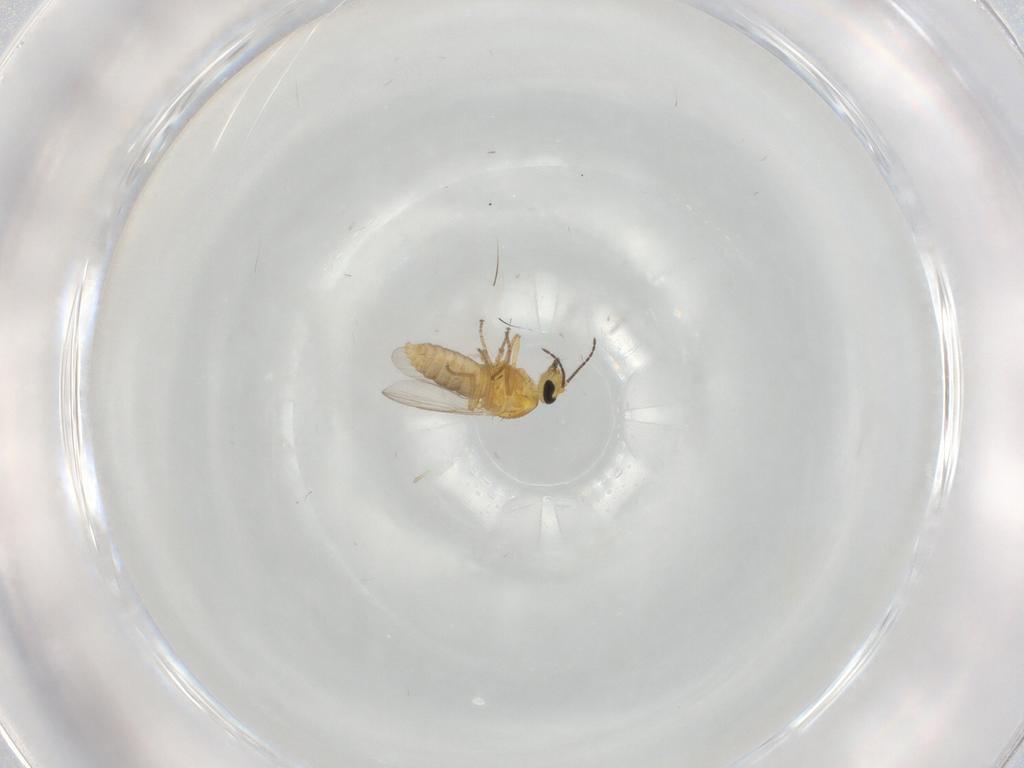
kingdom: Animalia
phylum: Arthropoda
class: Insecta
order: Diptera
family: Ceratopogonidae
